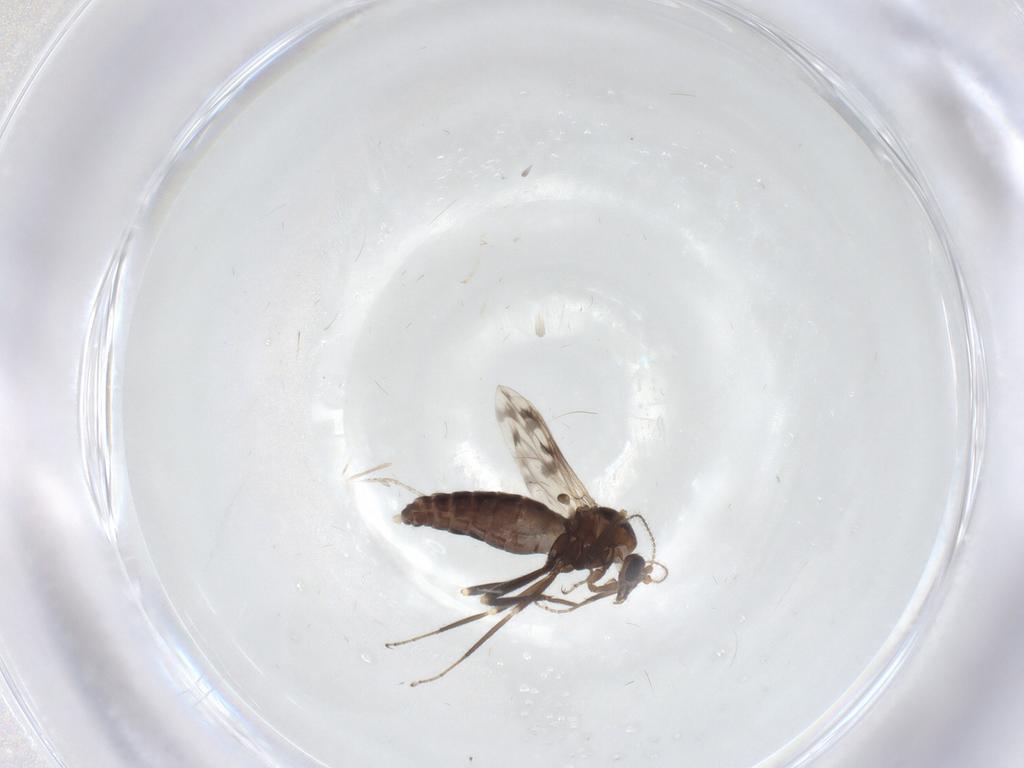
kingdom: Animalia
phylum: Arthropoda
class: Insecta
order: Diptera
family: Ceratopogonidae
